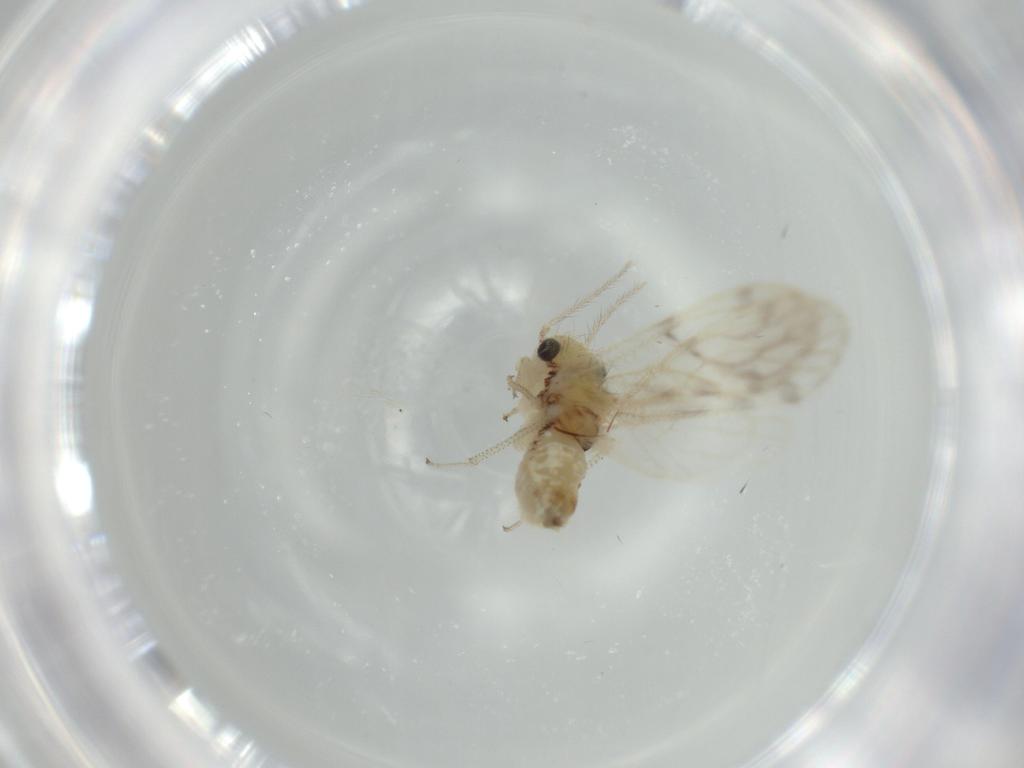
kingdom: Animalia
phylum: Arthropoda
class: Insecta
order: Psocodea
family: Pseudocaeciliidae
